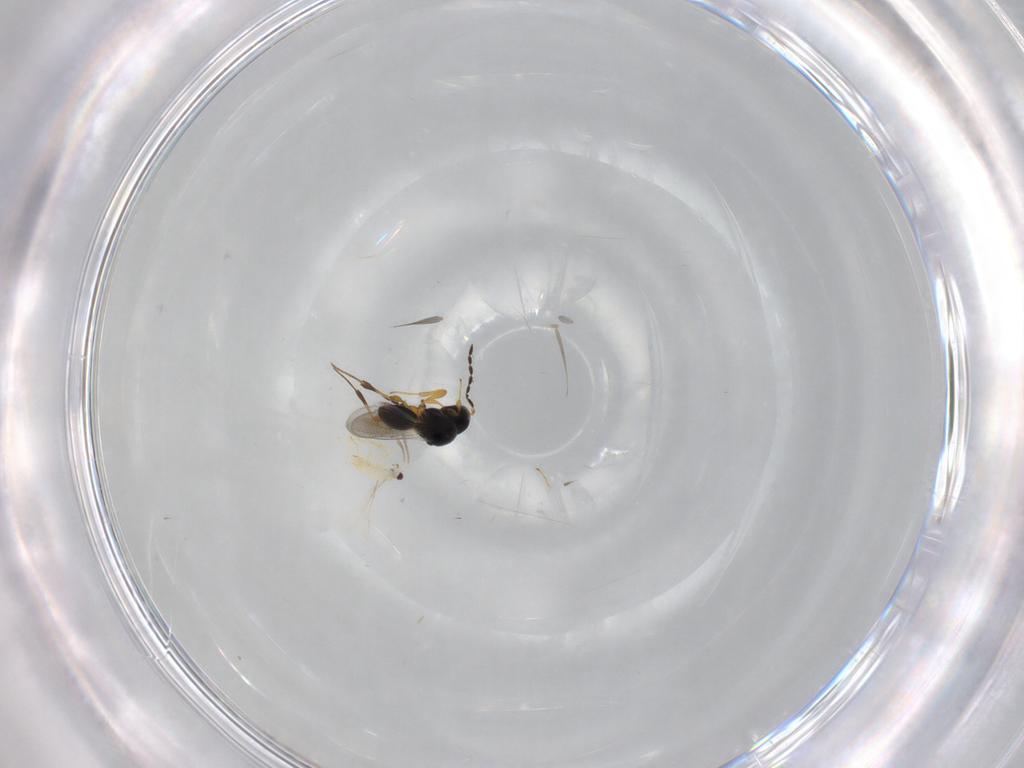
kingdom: Animalia
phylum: Arthropoda
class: Insecta
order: Hymenoptera
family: Mymaridae
